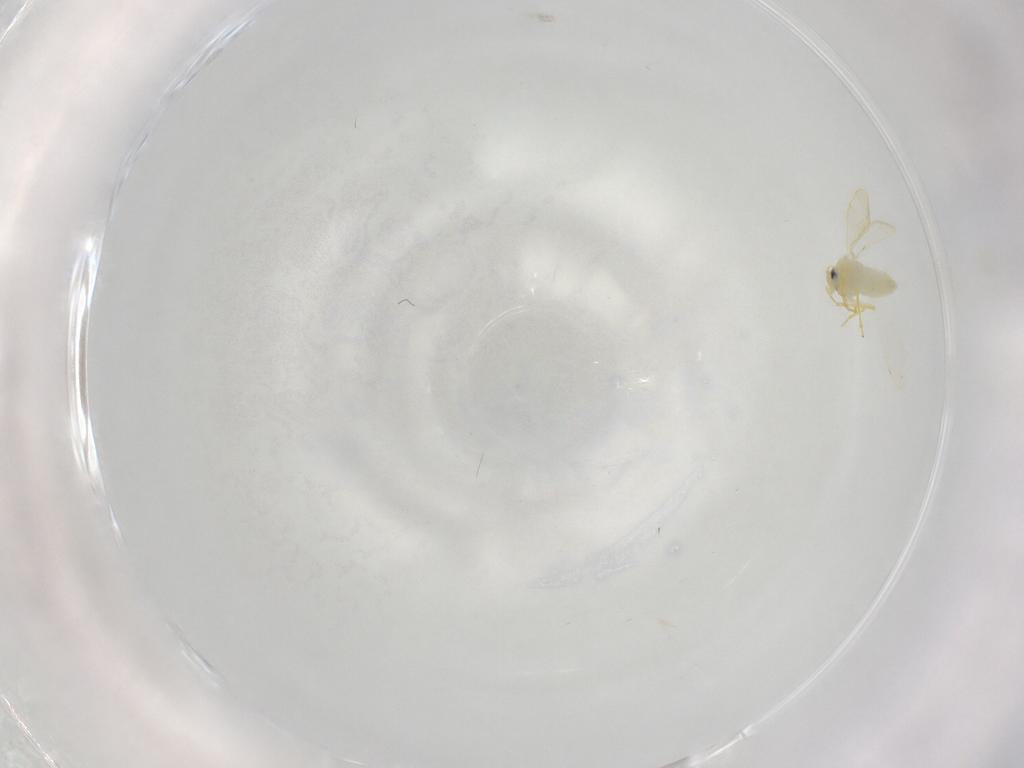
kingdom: Animalia
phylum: Arthropoda
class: Insecta
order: Hemiptera
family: Aleyrodidae
